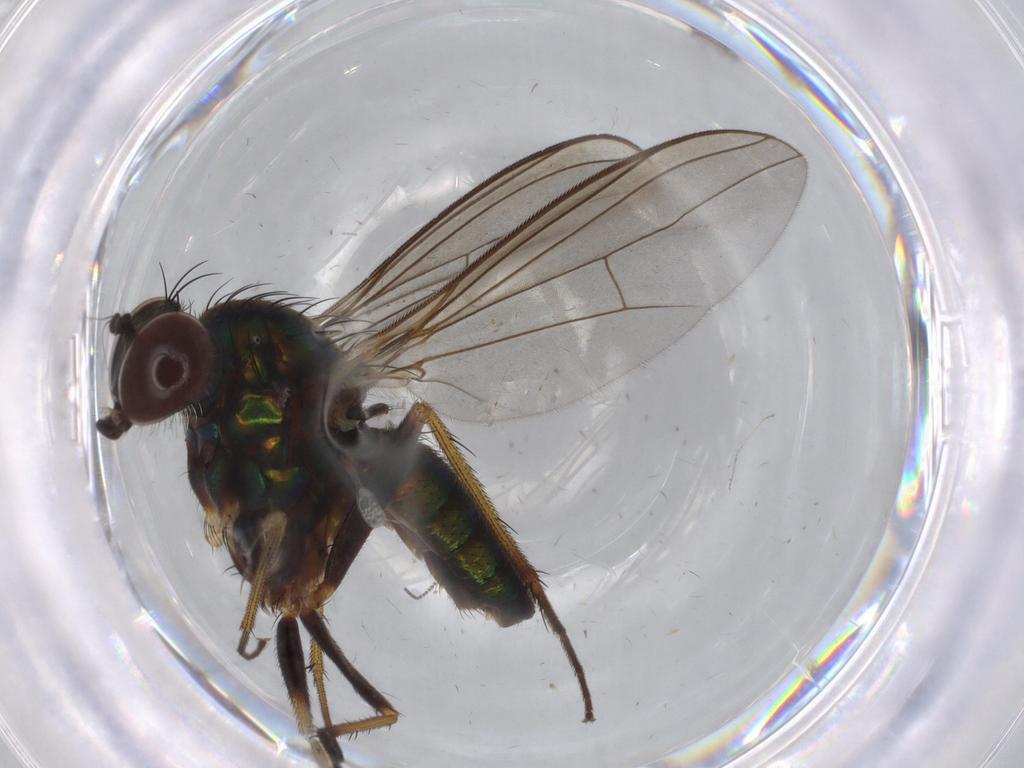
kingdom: Animalia
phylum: Arthropoda
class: Insecta
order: Diptera
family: Dolichopodidae
